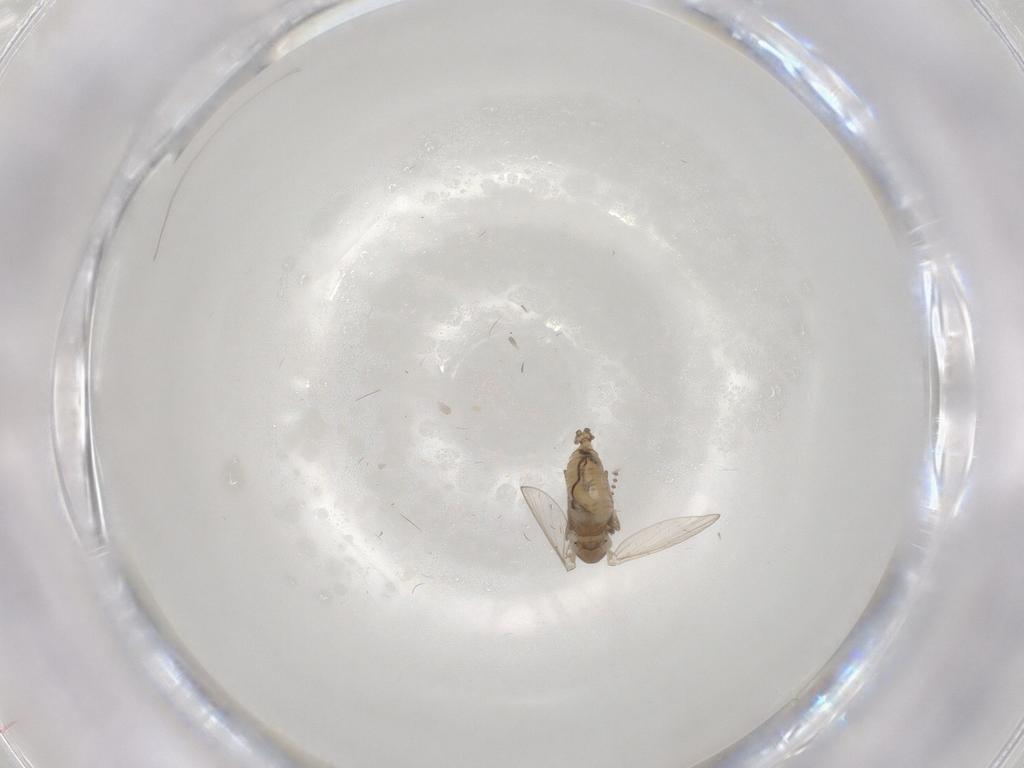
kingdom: Animalia
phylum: Arthropoda
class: Insecta
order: Diptera
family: Psychodidae
